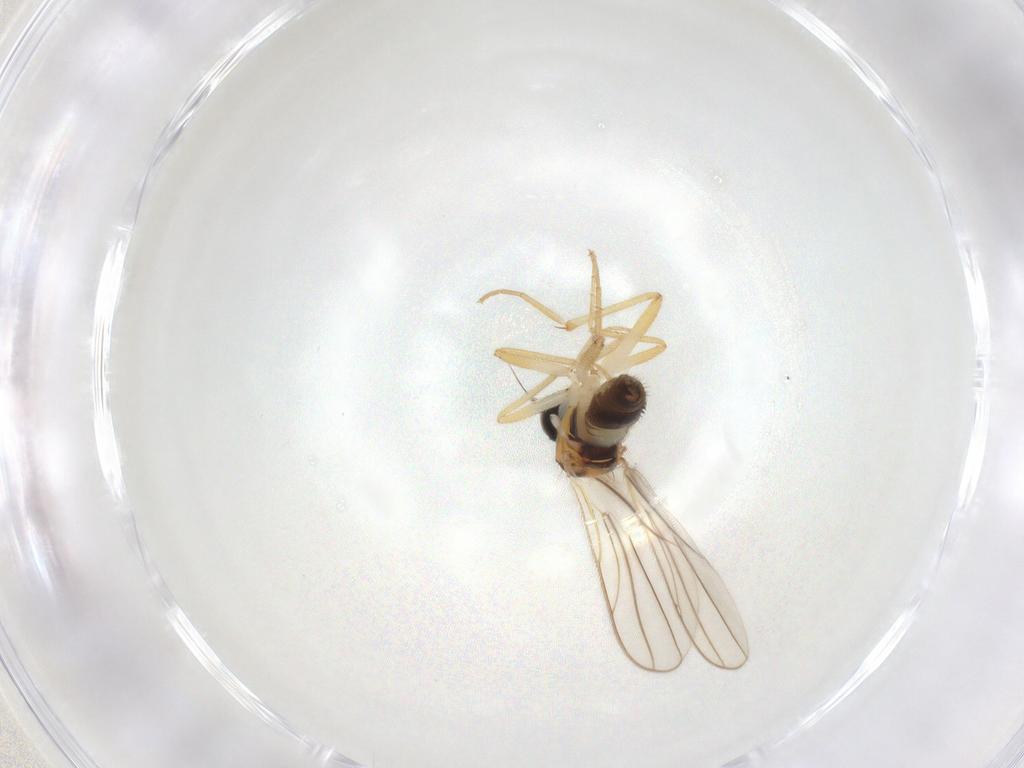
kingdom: Animalia
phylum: Arthropoda
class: Insecta
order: Diptera
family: Hybotidae
